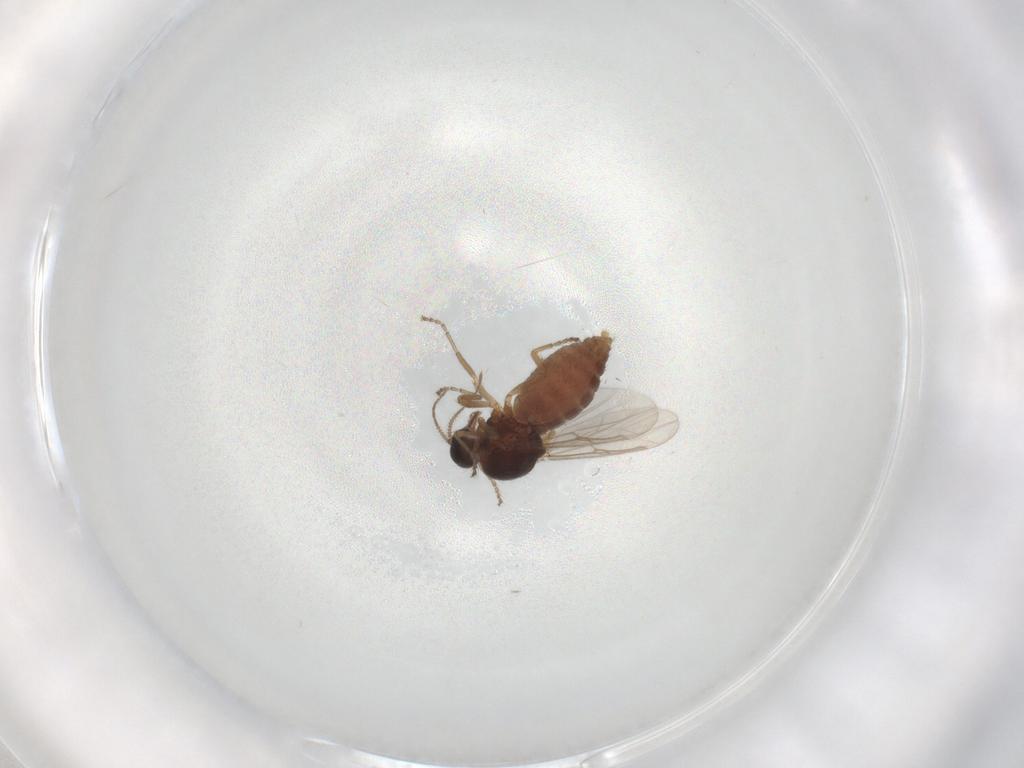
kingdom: Animalia
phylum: Arthropoda
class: Insecta
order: Diptera
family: Ceratopogonidae
